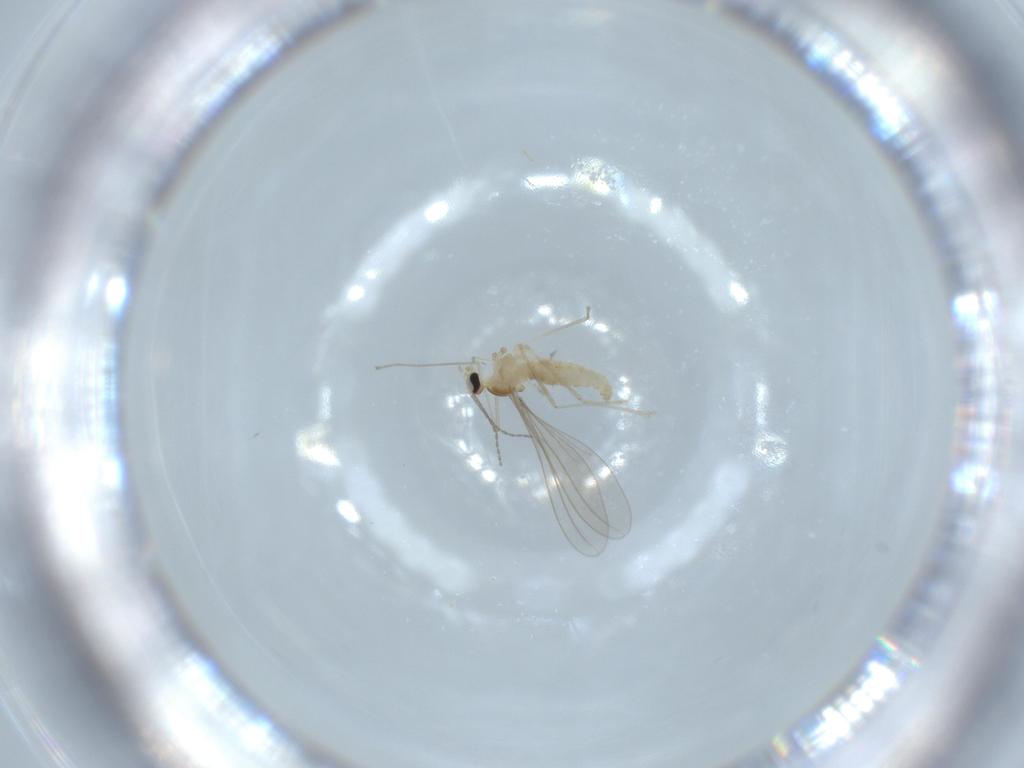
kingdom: Animalia
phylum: Arthropoda
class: Insecta
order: Diptera
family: Cecidomyiidae
